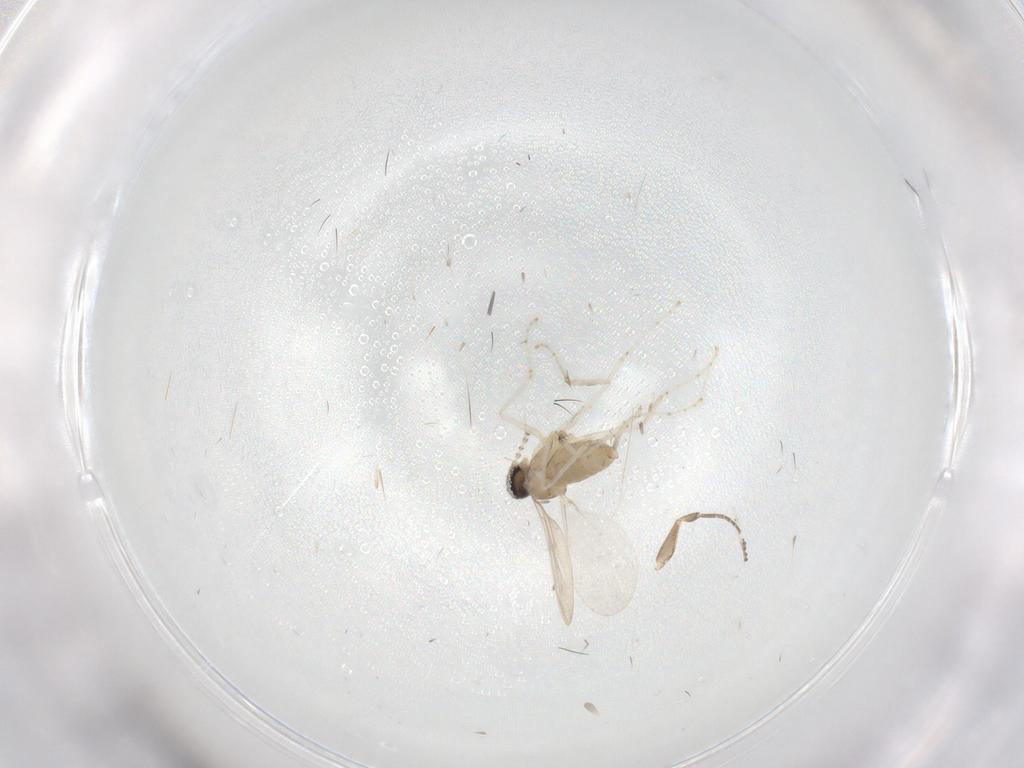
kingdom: Animalia
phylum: Arthropoda
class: Insecta
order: Diptera
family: Phoridae
